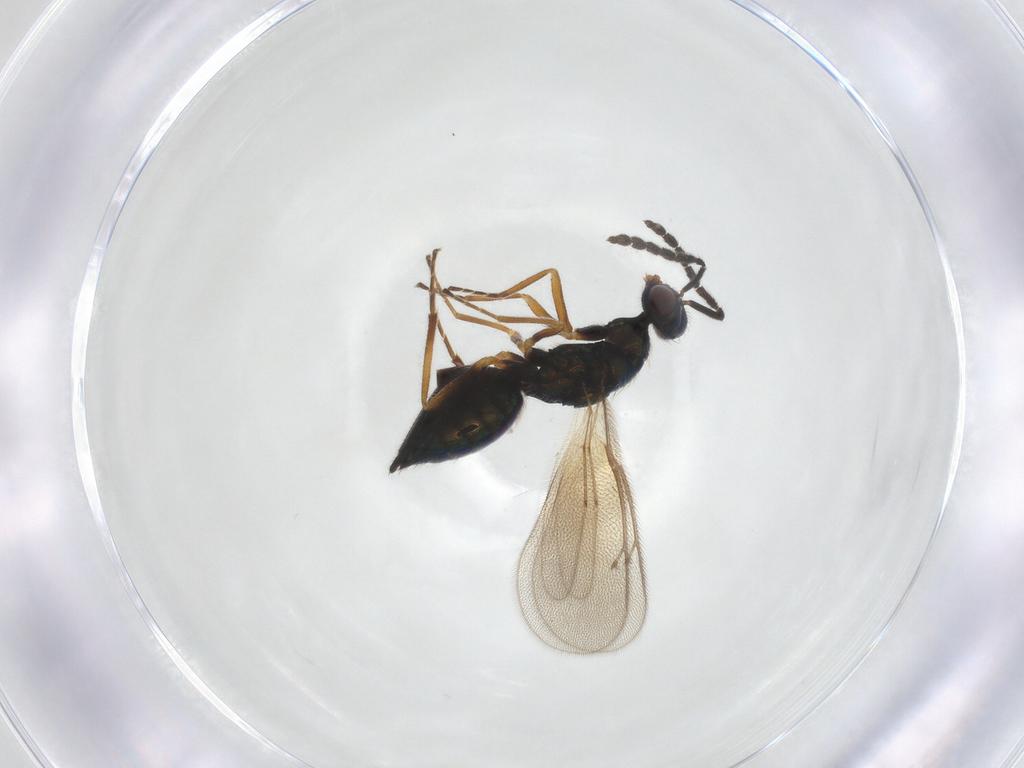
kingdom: Animalia
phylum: Arthropoda
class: Insecta
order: Hymenoptera
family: Eulophidae
